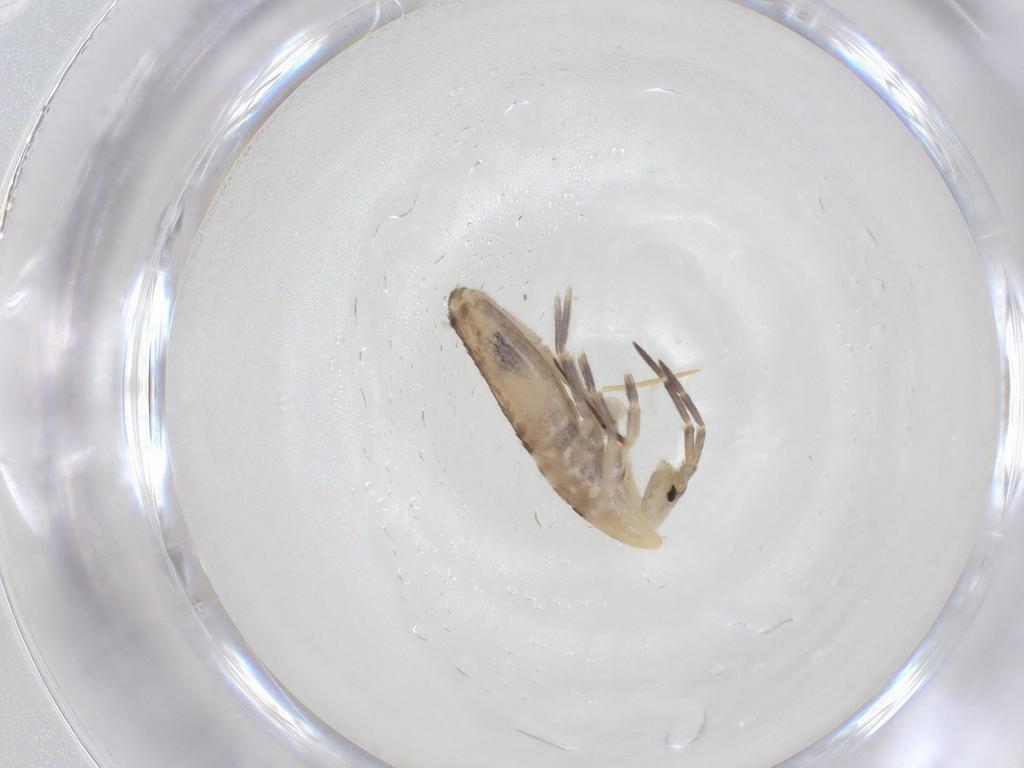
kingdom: Animalia
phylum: Arthropoda
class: Collembola
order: Entomobryomorpha
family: Entomobryidae
